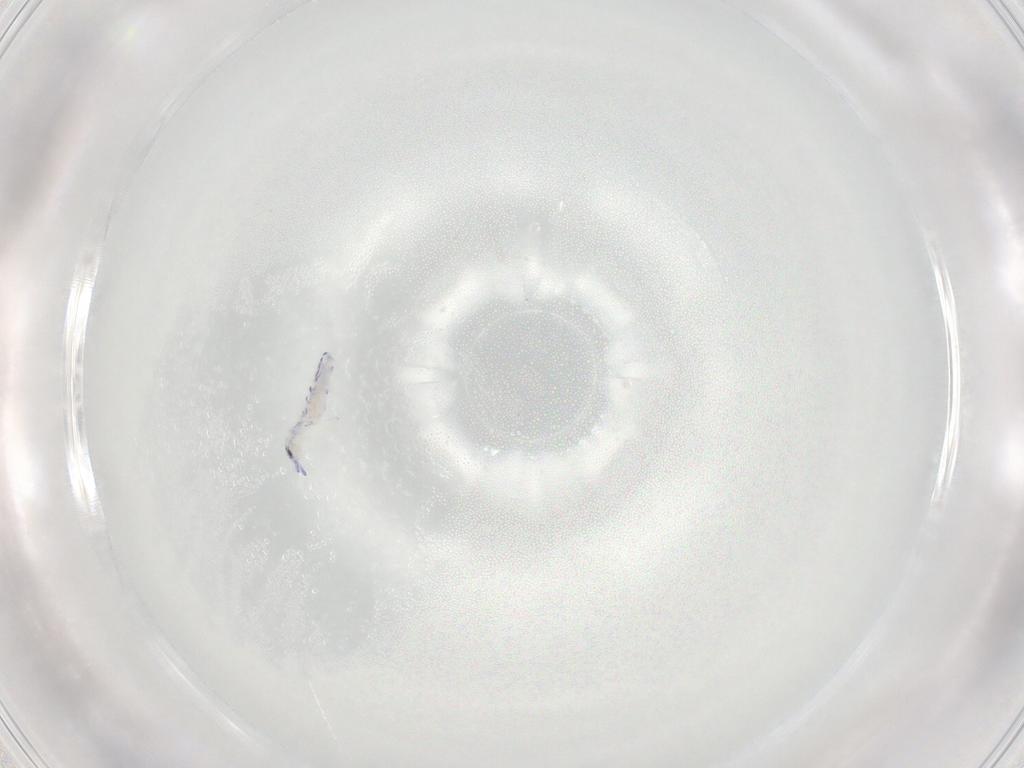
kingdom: Animalia
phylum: Arthropoda
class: Collembola
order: Entomobryomorpha
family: Entomobryidae
